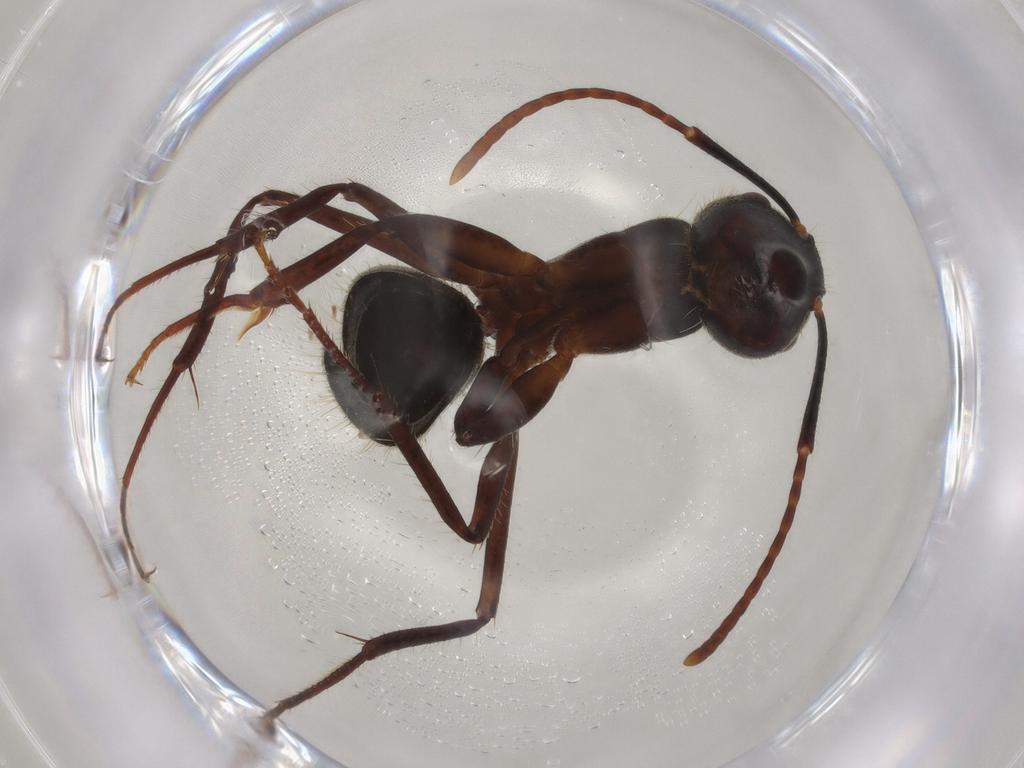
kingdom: Animalia
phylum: Arthropoda
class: Insecta
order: Hymenoptera
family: Formicidae
